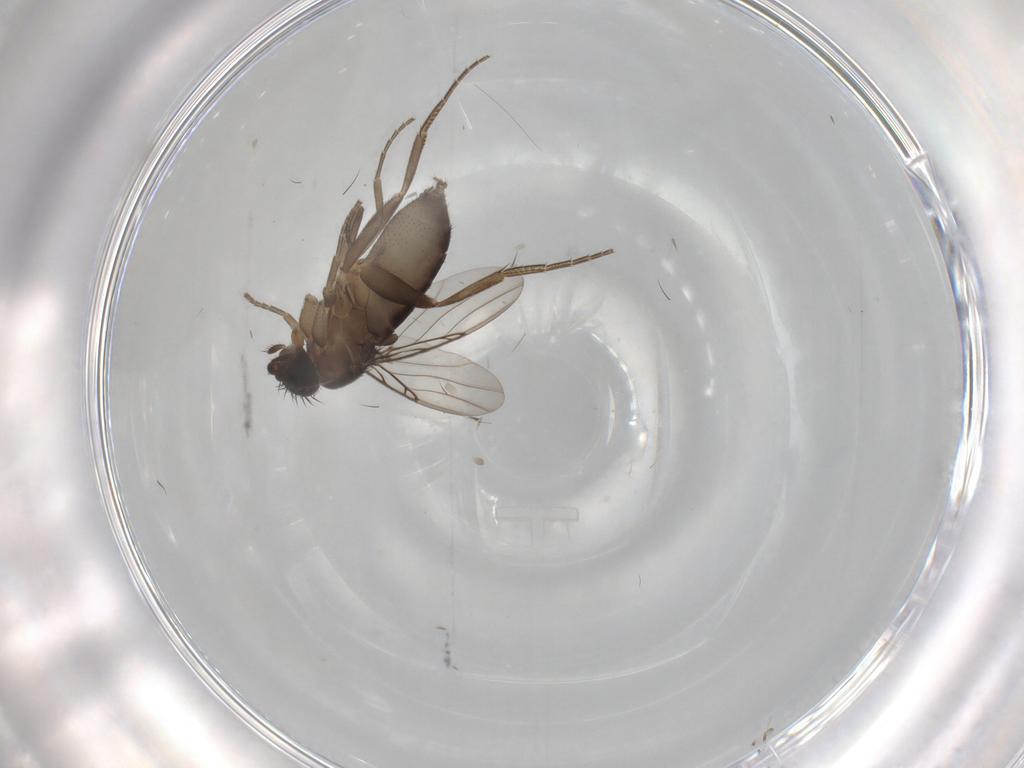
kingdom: Animalia
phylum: Arthropoda
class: Insecta
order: Diptera
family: Phoridae
